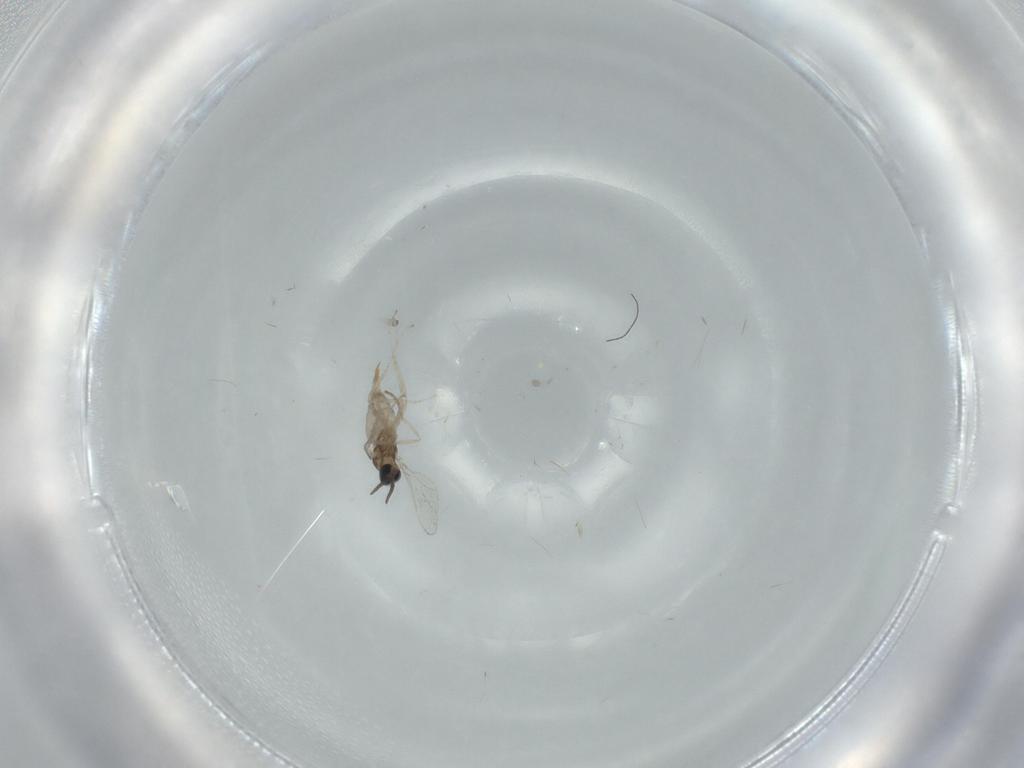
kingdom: Animalia
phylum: Arthropoda
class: Insecta
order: Diptera
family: Cecidomyiidae
